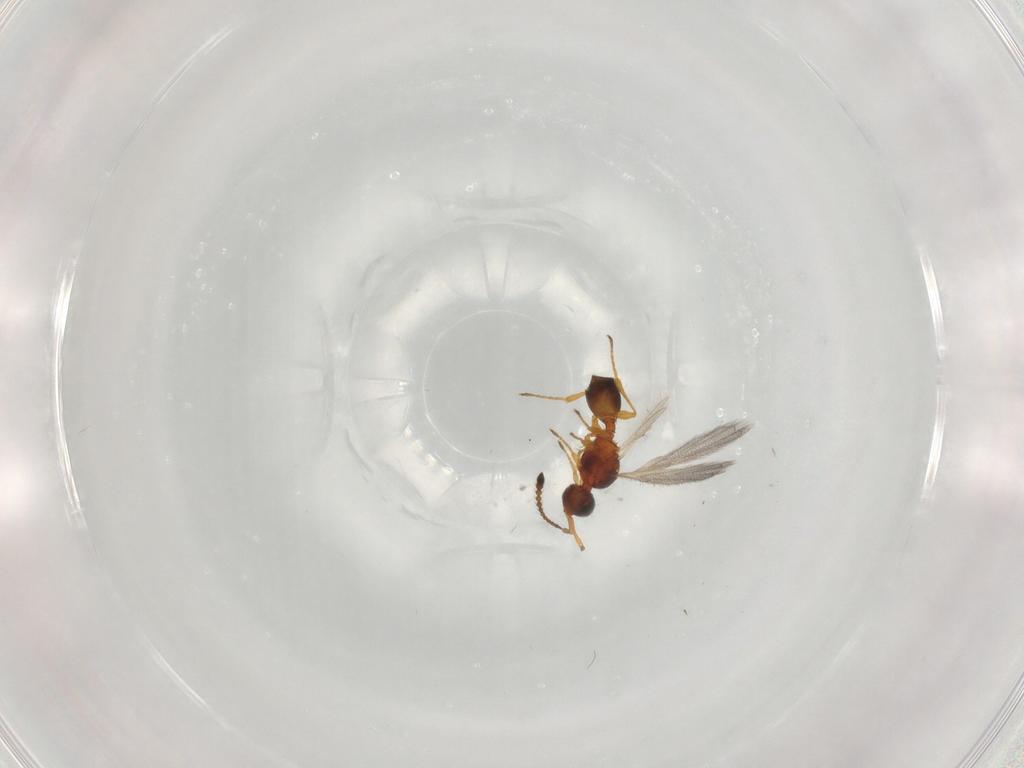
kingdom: Animalia
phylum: Arthropoda
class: Insecta
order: Hymenoptera
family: Diapriidae
